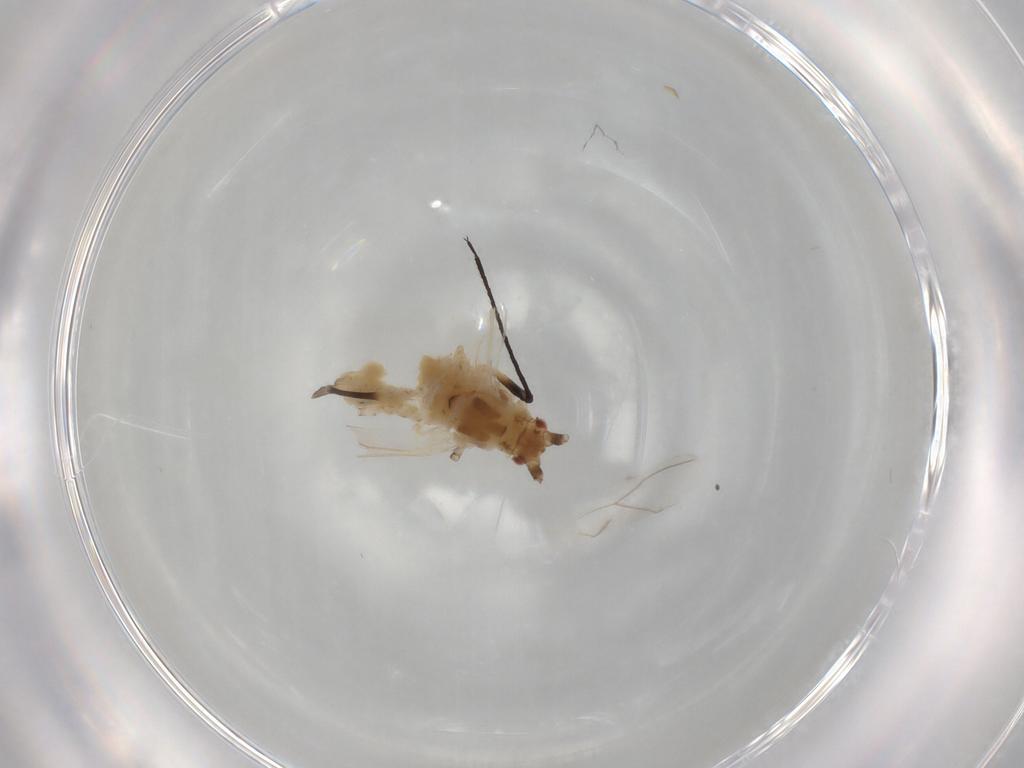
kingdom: Animalia
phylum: Arthropoda
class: Insecta
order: Hemiptera
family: Aphididae
